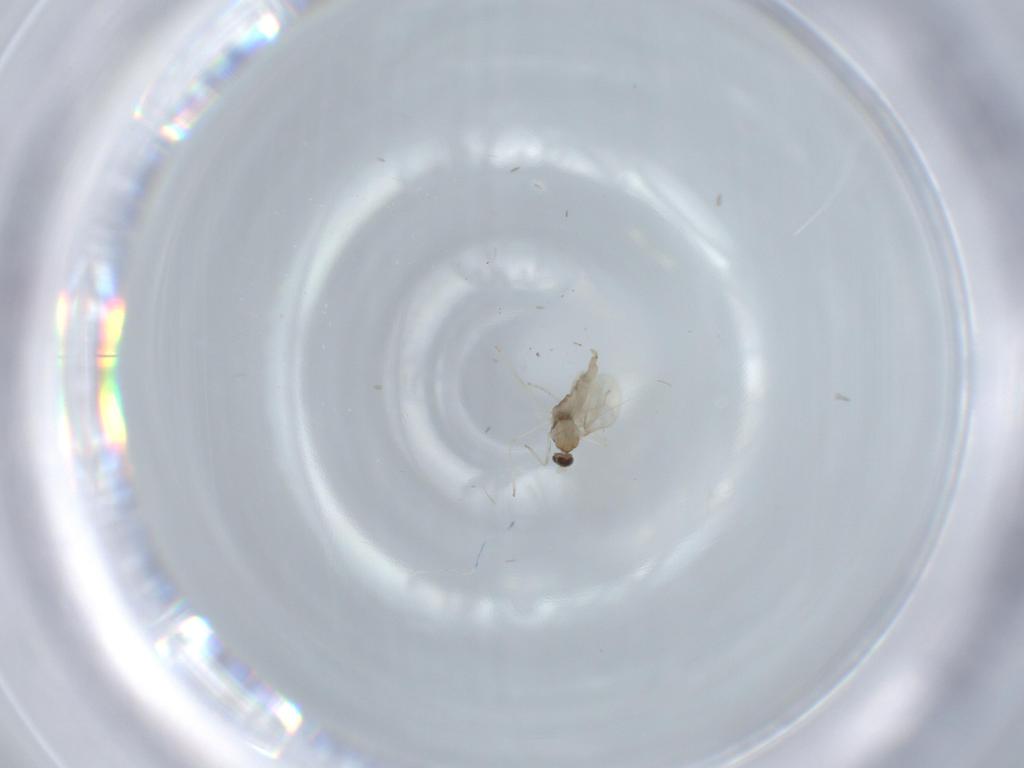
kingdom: Animalia
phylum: Arthropoda
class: Insecta
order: Diptera
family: Cecidomyiidae
